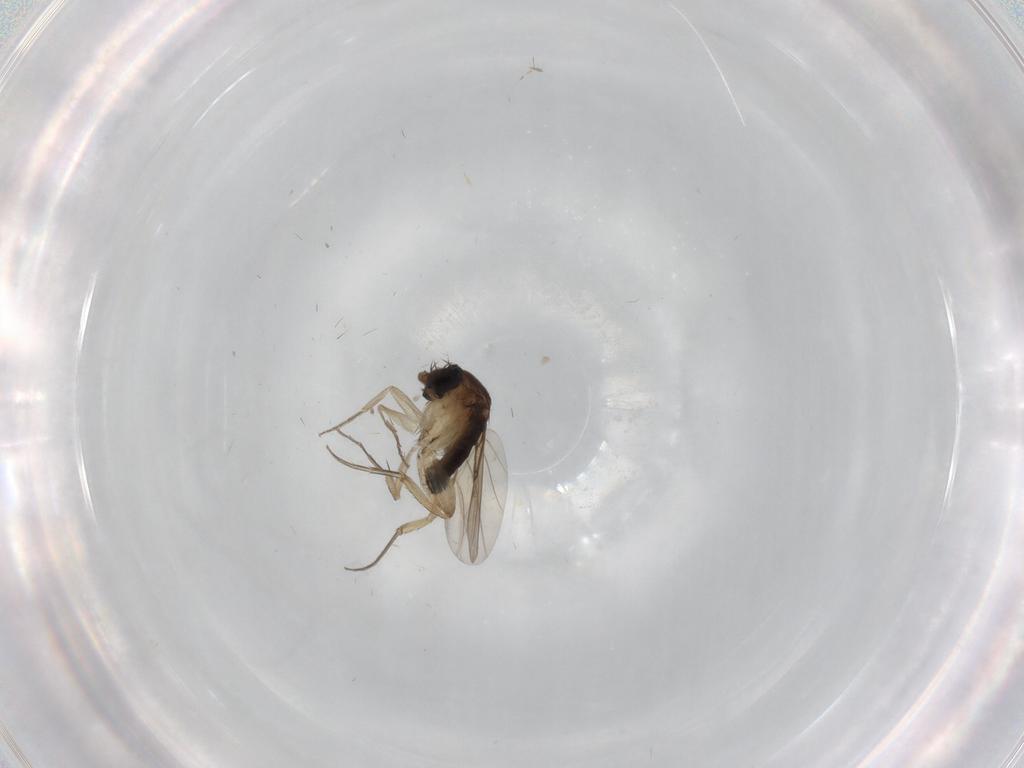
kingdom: Animalia
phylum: Arthropoda
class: Insecta
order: Diptera
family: Phoridae
